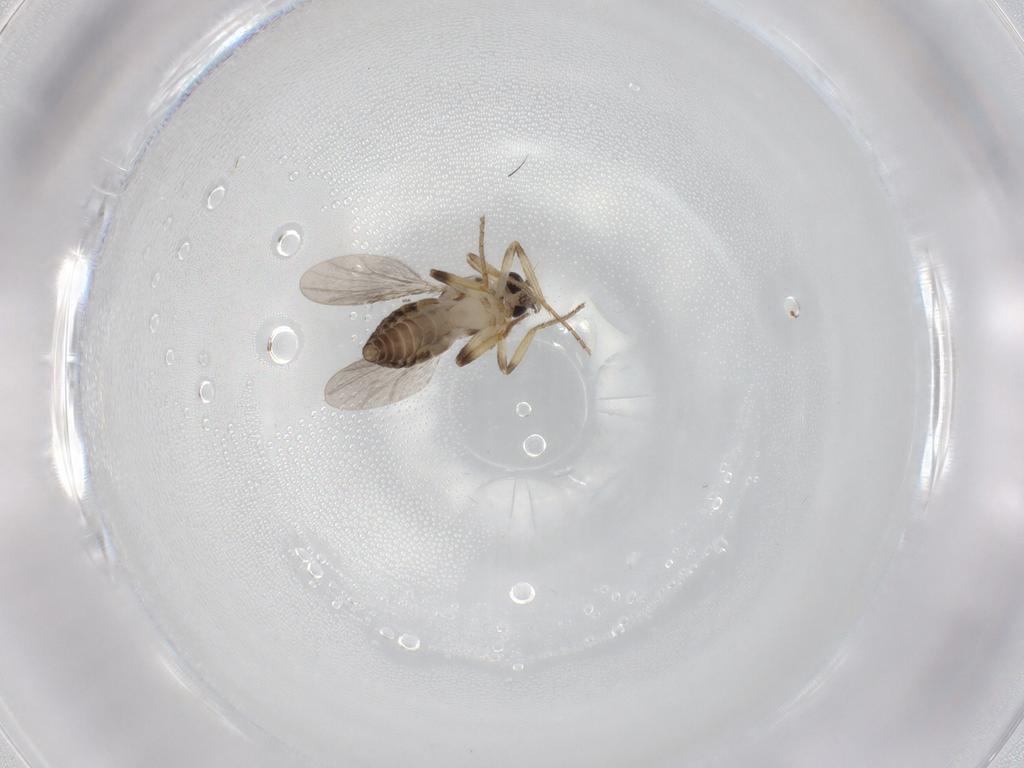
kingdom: Animalia
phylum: Arthropoda
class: Insecta
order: Diptera
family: Ceratopogonidae
